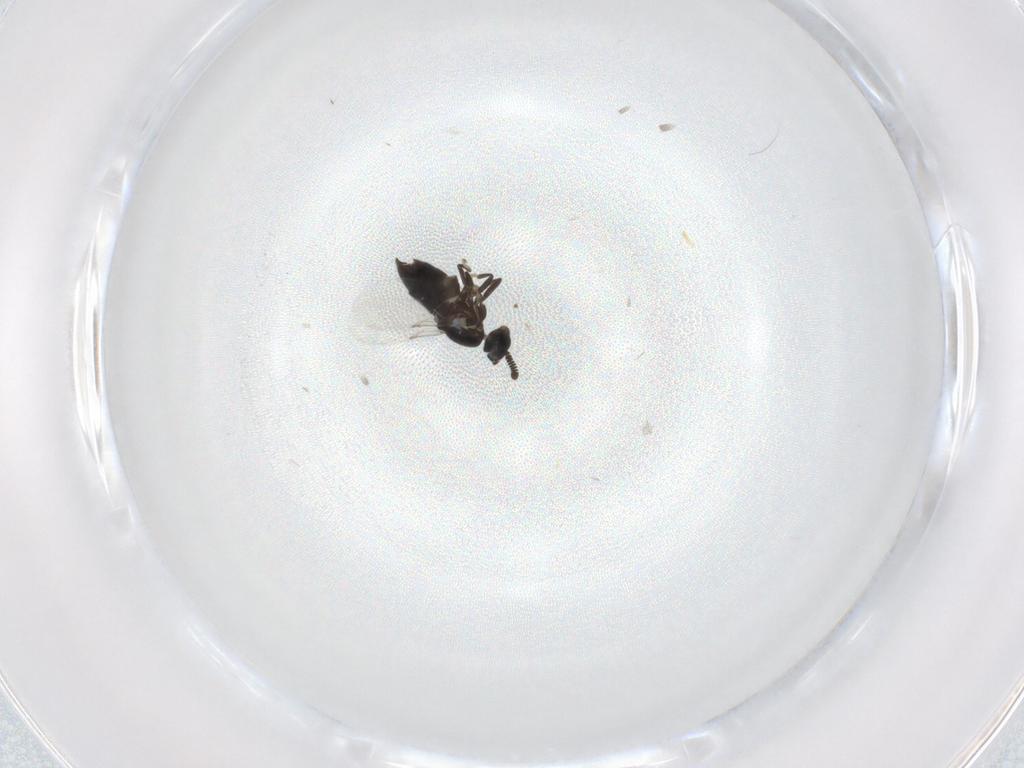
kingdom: Animalia
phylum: Arthropoda
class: Insecta
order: Diptera
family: Scatopsidae
